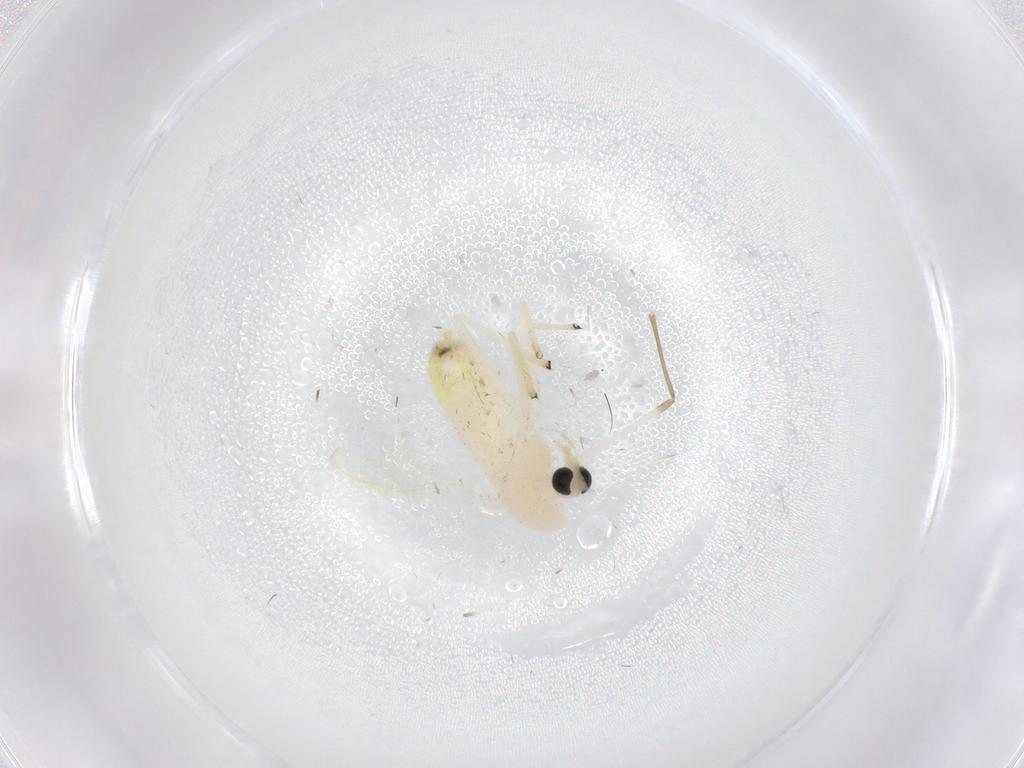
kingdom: Animalia
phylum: Arthropoda
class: Insecta
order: Diptera
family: Chironomidae
